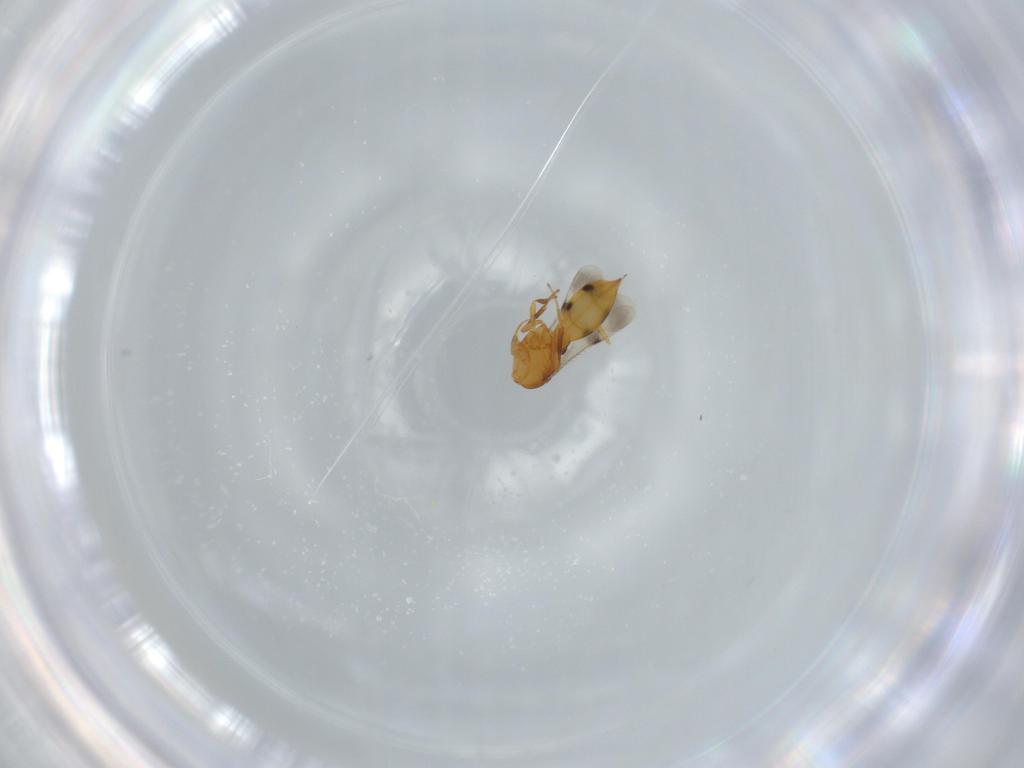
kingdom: Animalia
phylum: Arthropoda
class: Insecta
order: Hymenoptera
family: Scelionidae
